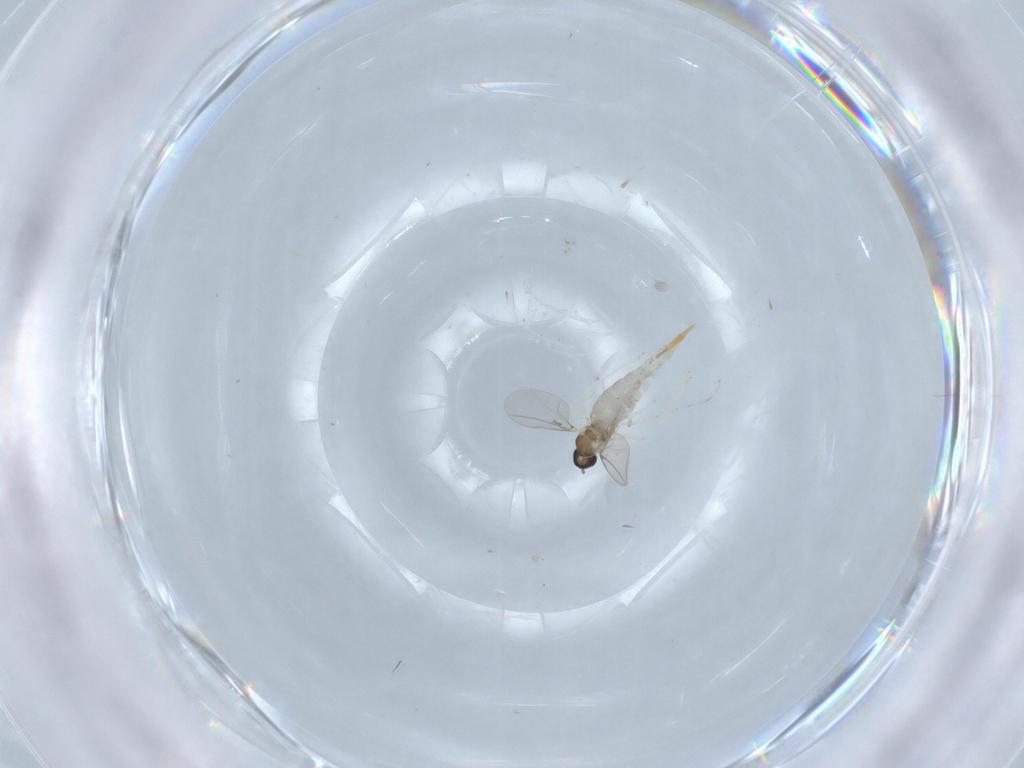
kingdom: Animalia
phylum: Arthropoda
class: Insecta
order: Diptera
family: Cecidomyiidae
